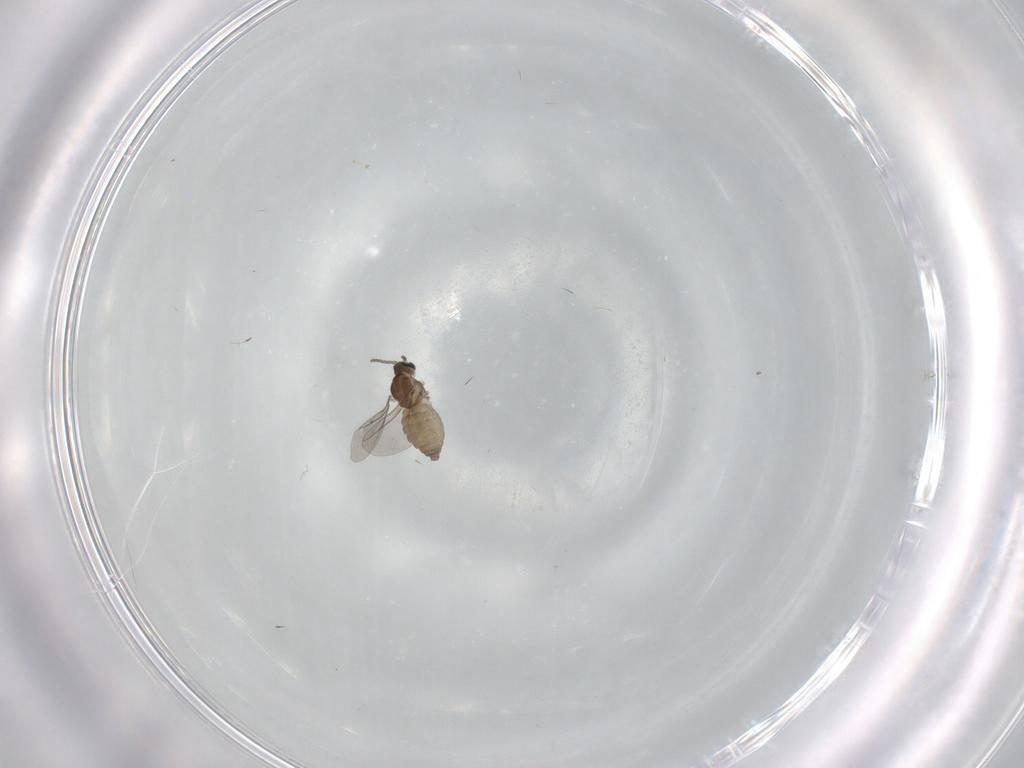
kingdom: Animalia
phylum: Arthropoda
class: Insecta
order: Diptera
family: Cecidomyiidae
